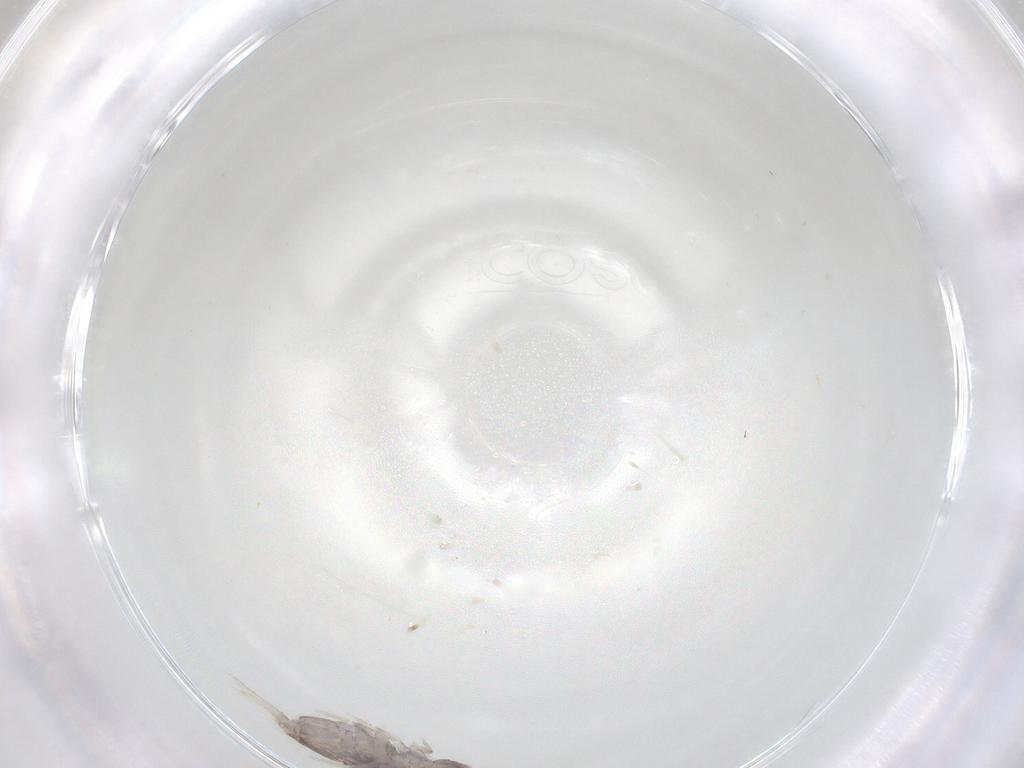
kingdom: Animalia
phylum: Arthropoda
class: Collembola
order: Entomobryomorpha
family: Entomobryidae
